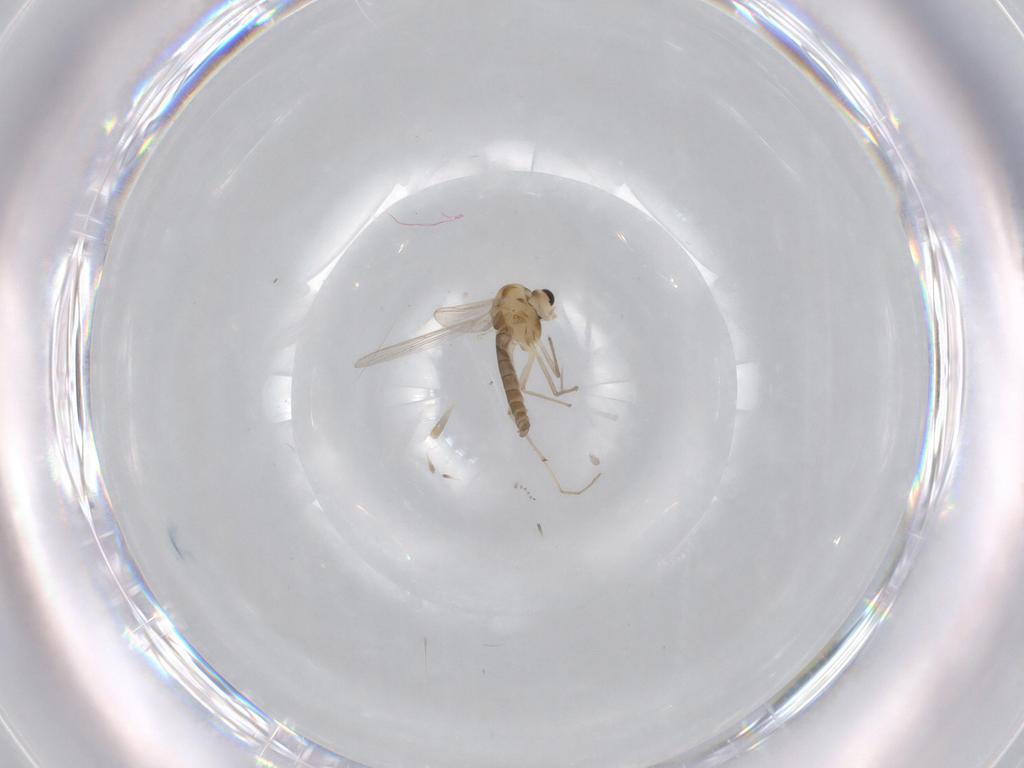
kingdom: Animalia
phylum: Arthropoda
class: Insecta
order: Diptera
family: Chironomidae
